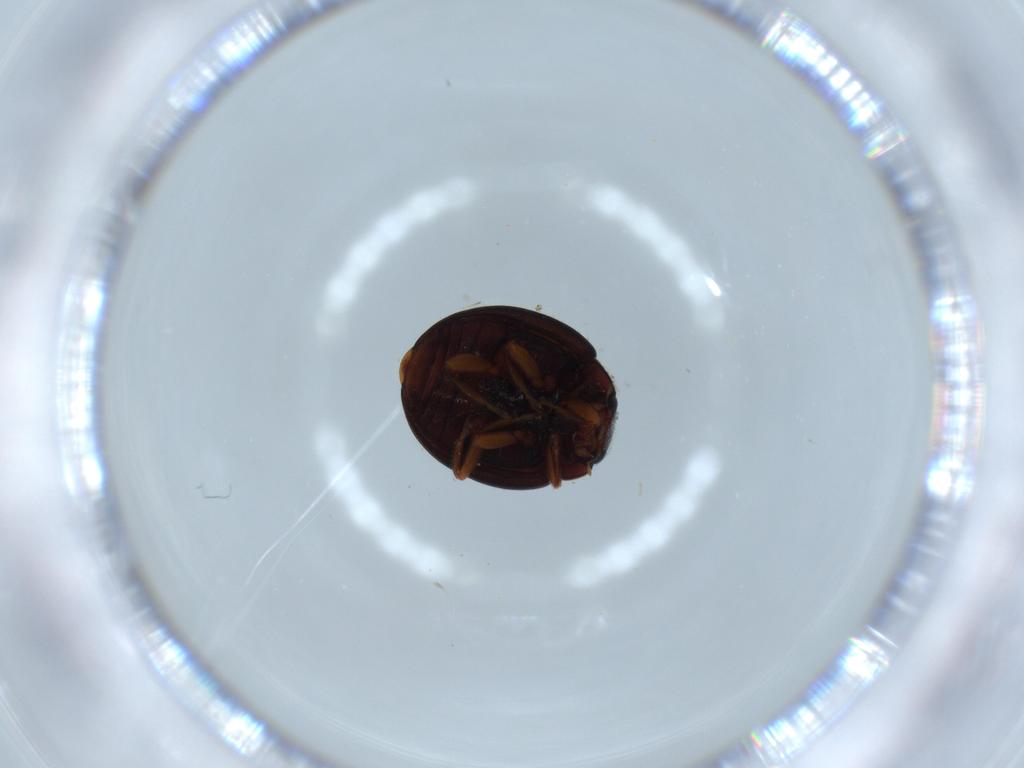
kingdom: Animalia
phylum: Arthropoda
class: Insecta
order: Coleoptera
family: Coccinellidae
